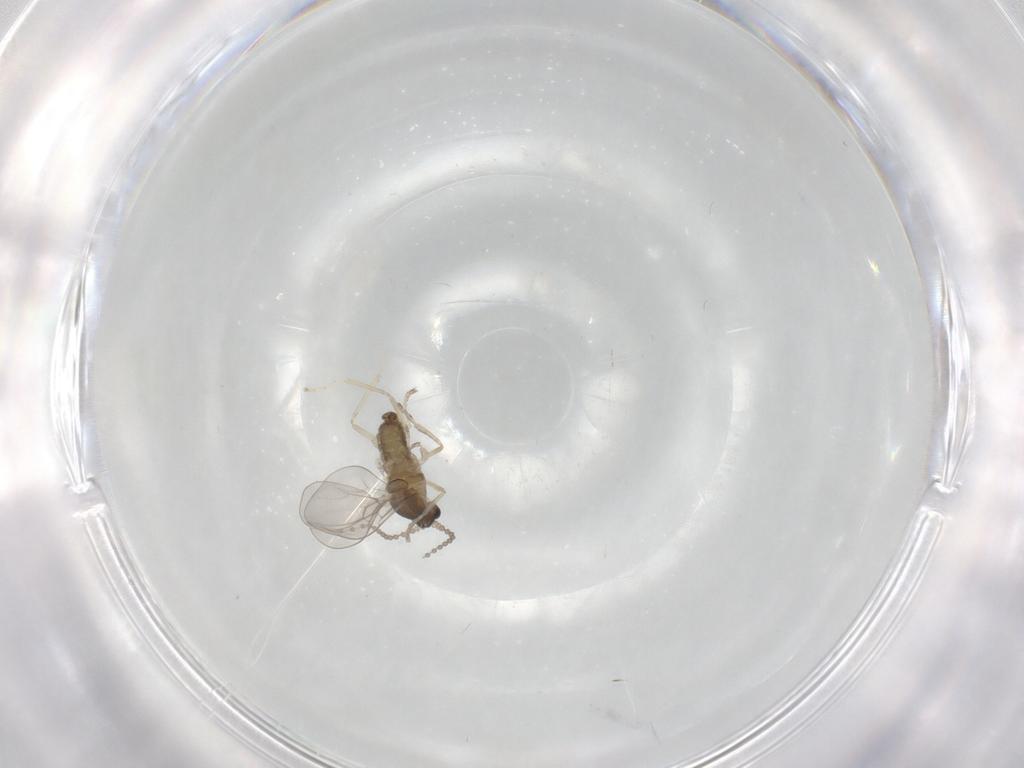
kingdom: Animalia
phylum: Arthropoda
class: Insecta
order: Diptera
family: Cecidomyiidae
